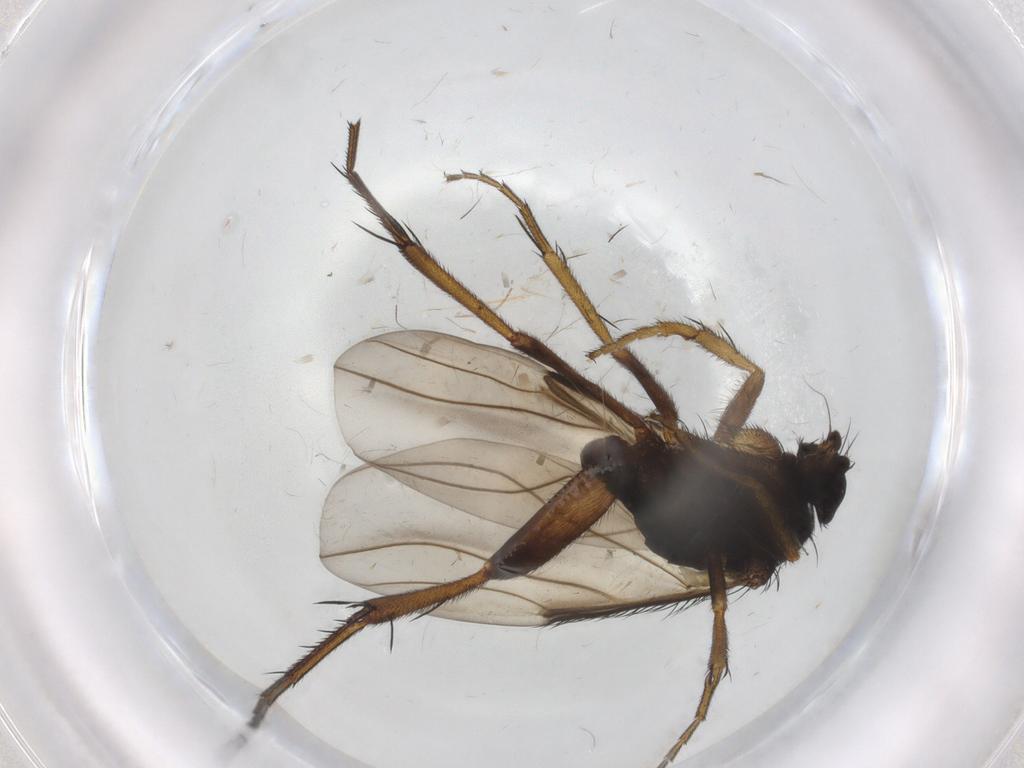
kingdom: Animalia
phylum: Arthropoda
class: Insecta
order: Diptera
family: Phoridae
